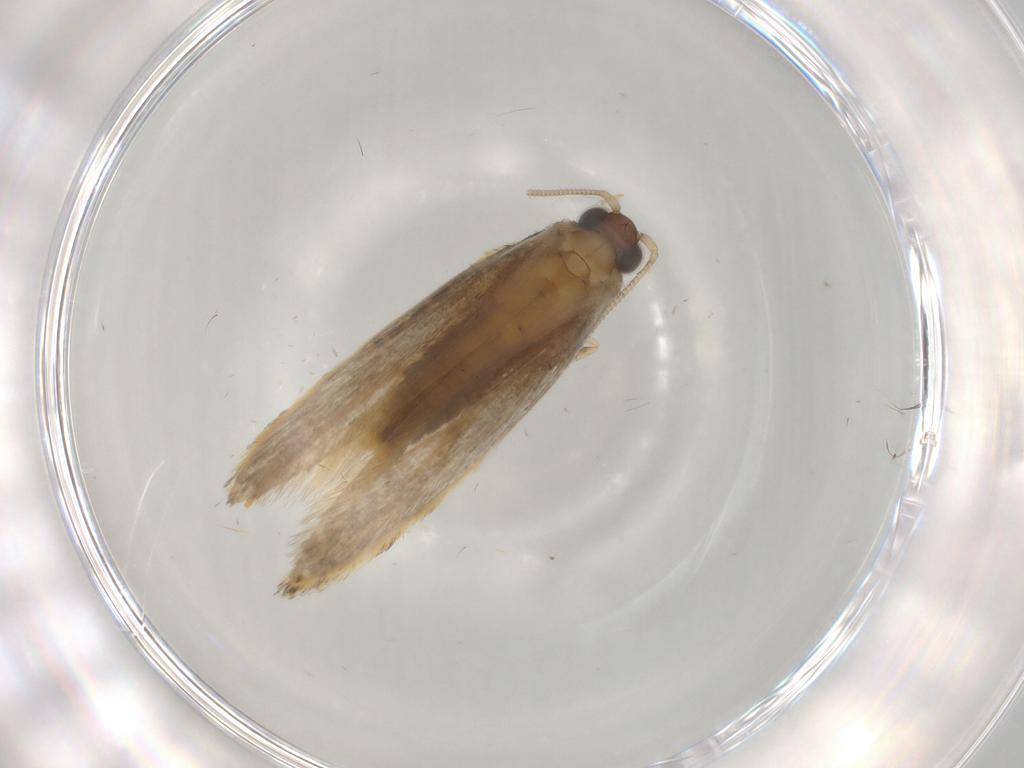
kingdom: Animalia
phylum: Arthropoda
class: Insecta
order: Lepidoptera
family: Tineidae
